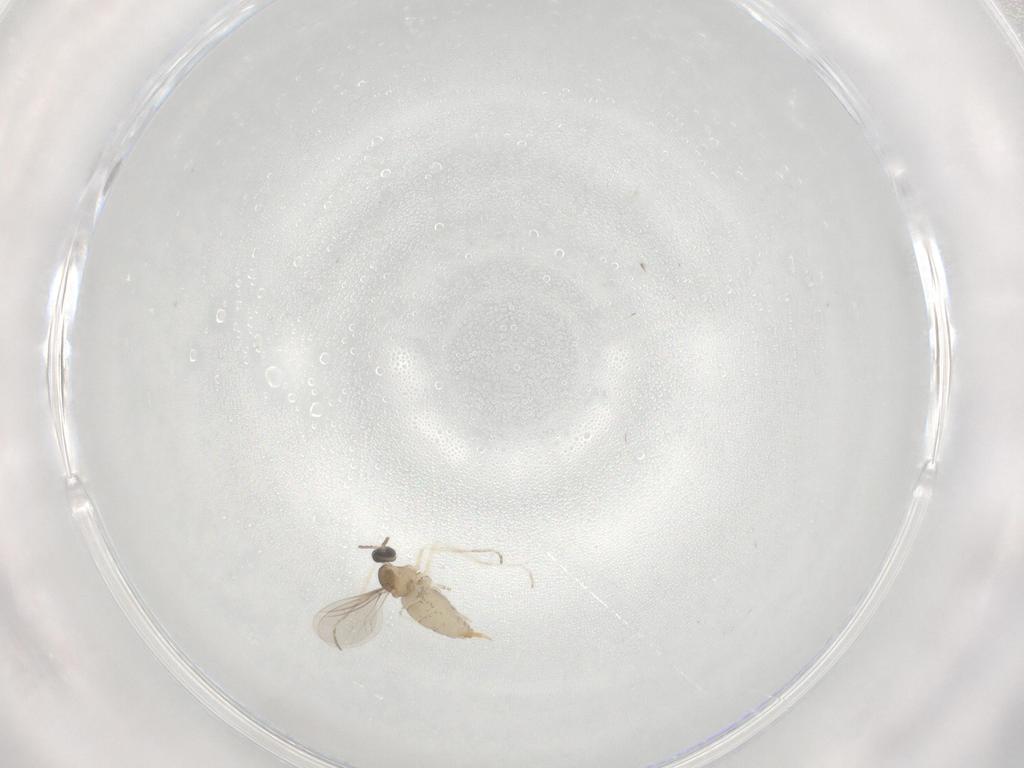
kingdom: Animalia
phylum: Arthropoda
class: Insecta
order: Diptera
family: Cecidomyiidae
